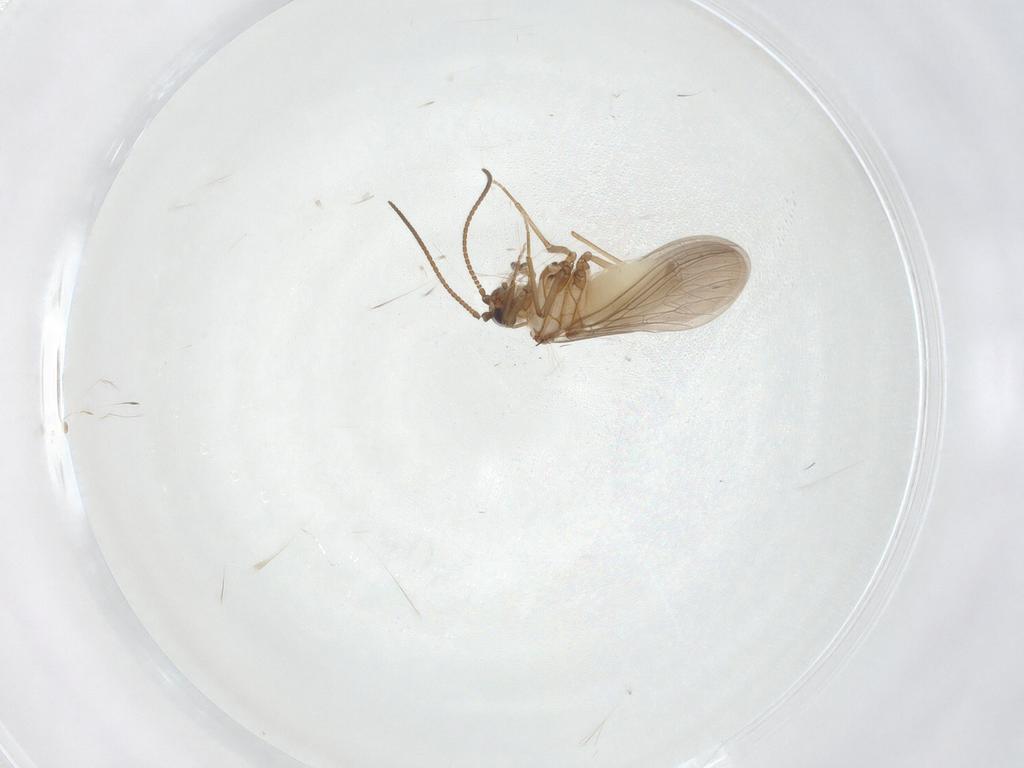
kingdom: Animalia
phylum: Arthropoda
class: Insecta
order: Neuroptera
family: Coniopterygidae
